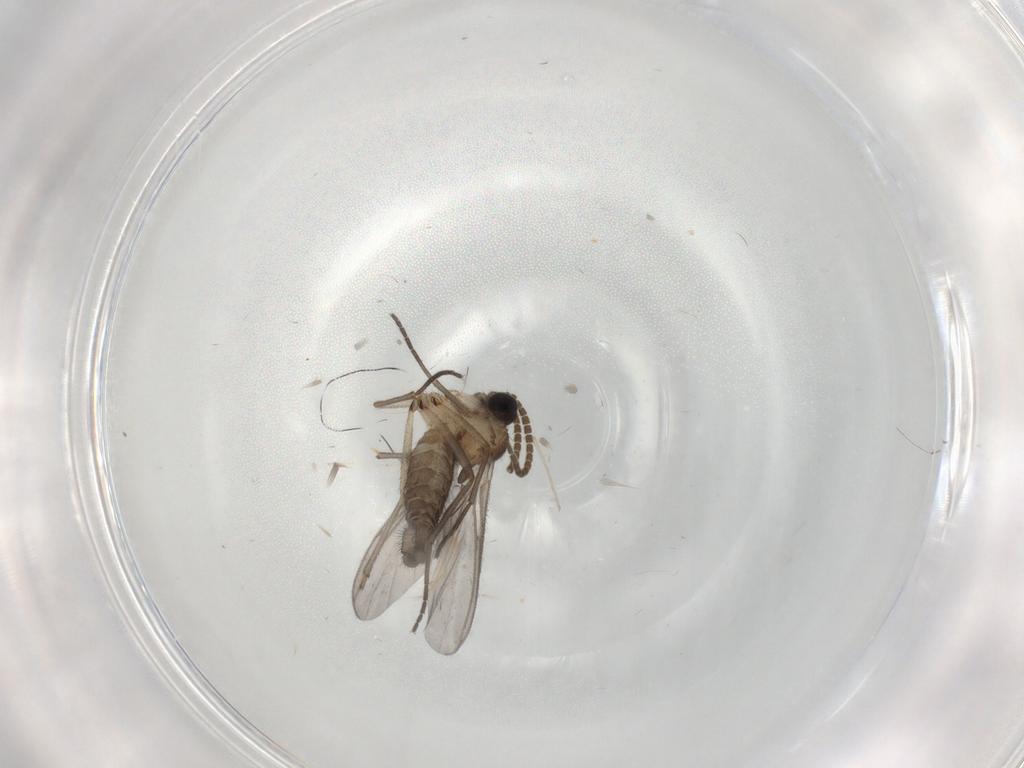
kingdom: Animalia
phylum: Arthropoda
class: Insecta
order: Diptera
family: Cecidomyiidae
